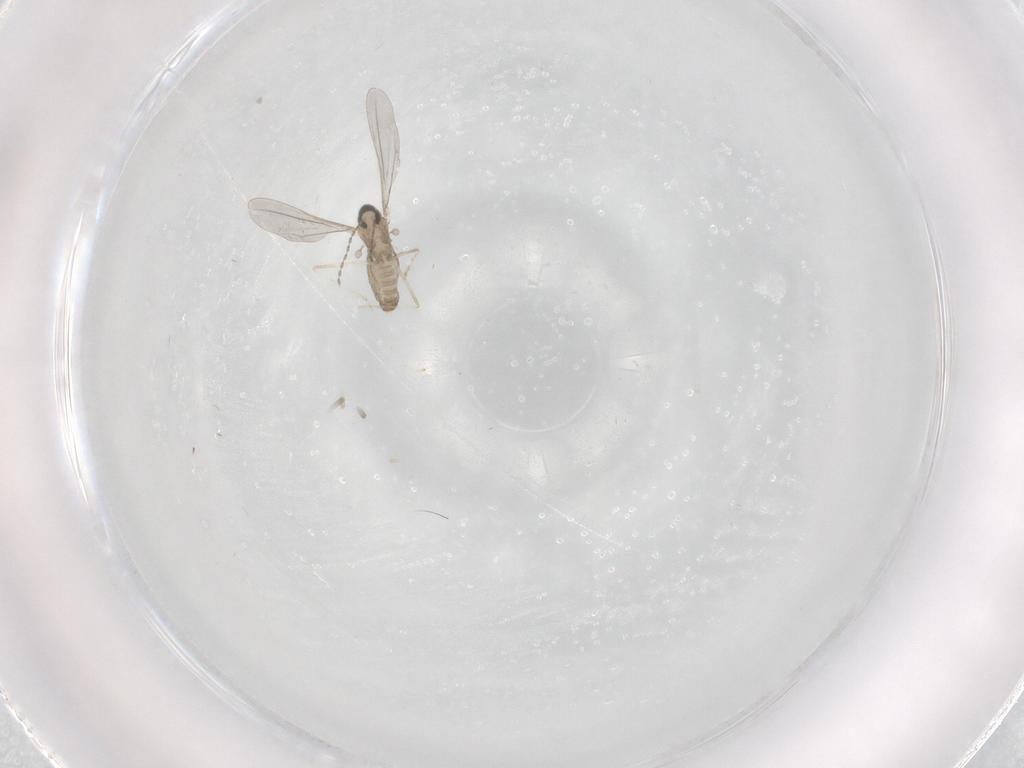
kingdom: Animalia
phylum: Arthropoda
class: Insecta
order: Diptera
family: Cecidomyiidae
